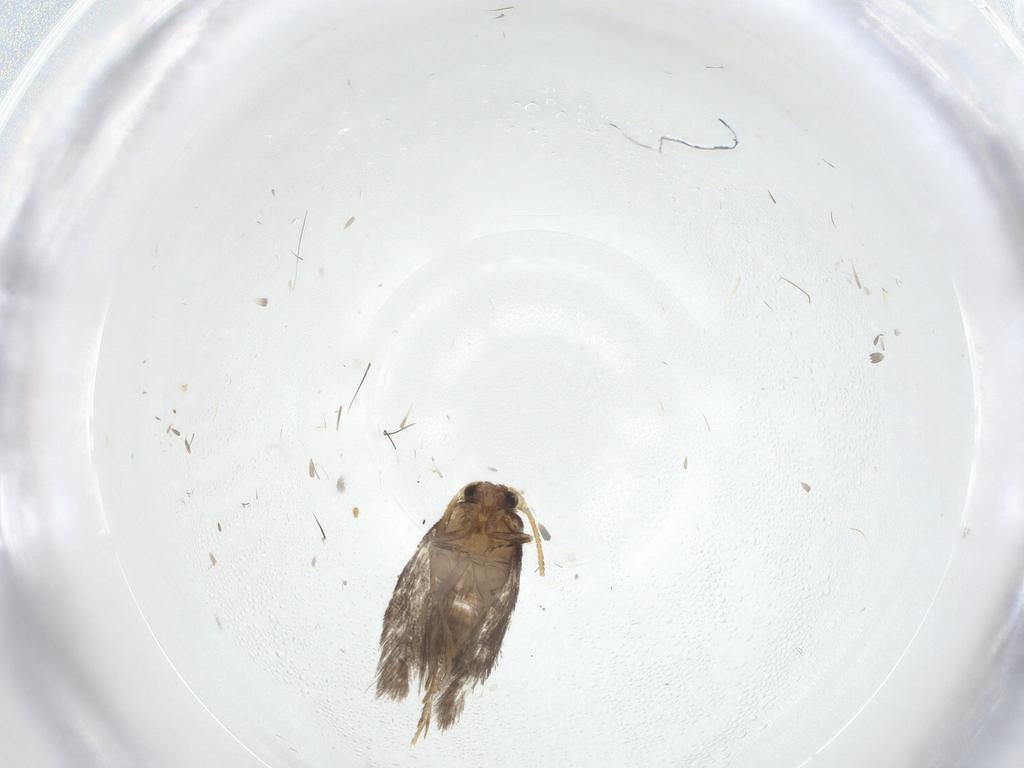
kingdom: Animalia
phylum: Arthropoda
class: Insecta
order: Lepidoptera
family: Nepticulidae
